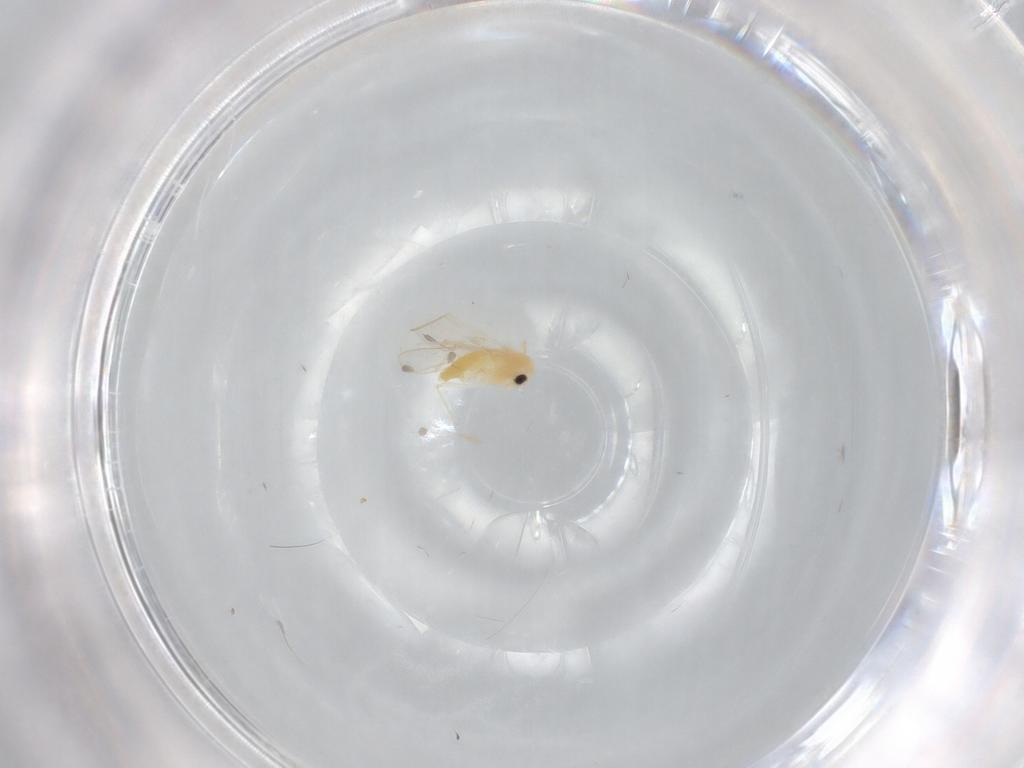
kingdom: Animalia
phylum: Arthropoda
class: Insecta
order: Diptera
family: Chironomidae
